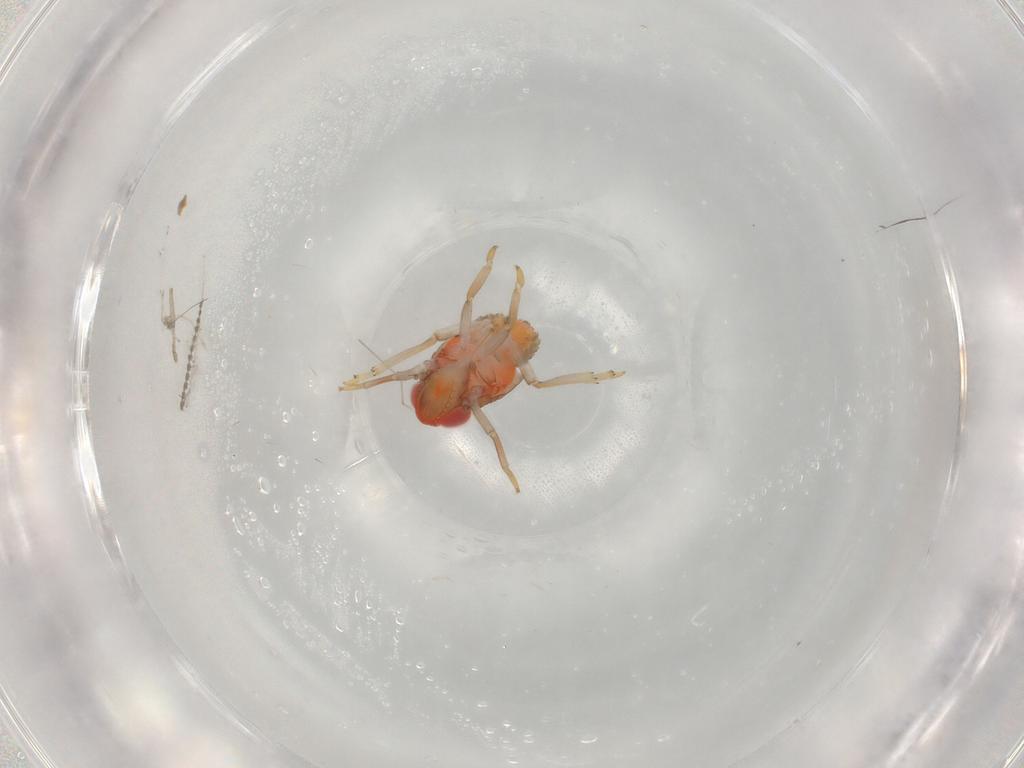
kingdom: Animalia
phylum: Arthropoda
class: Insecta
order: Hemiptera
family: Issidae
